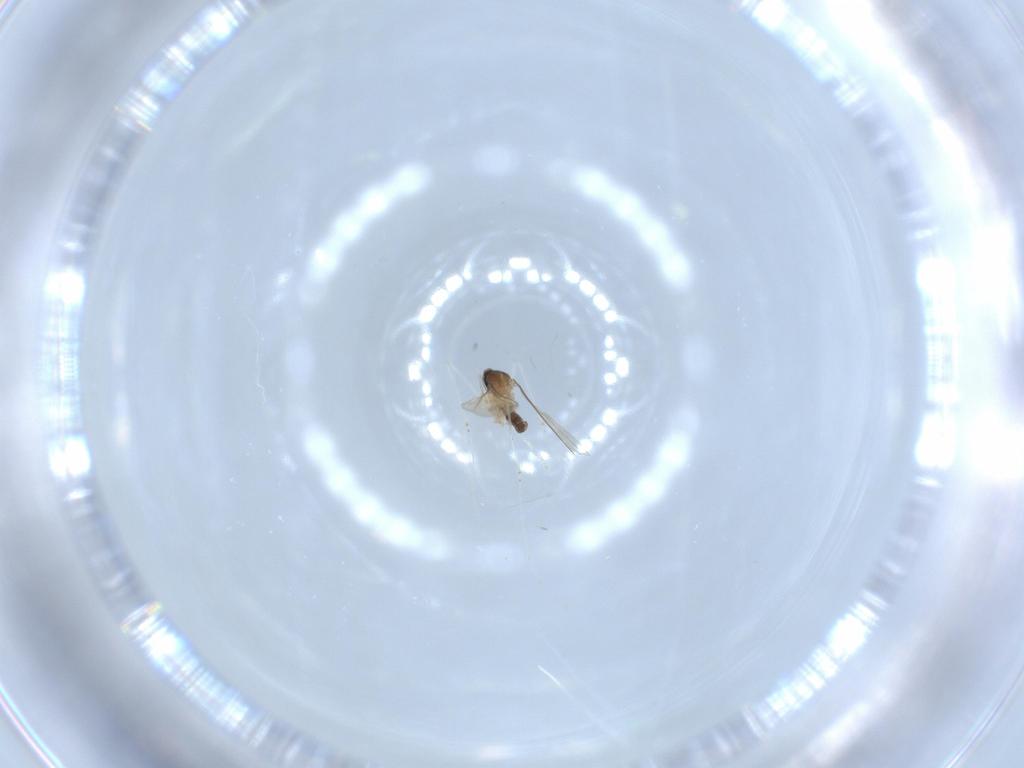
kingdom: Animalia
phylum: Arthropoda
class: Insecta
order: Diptera
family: Cecidomyiidae
